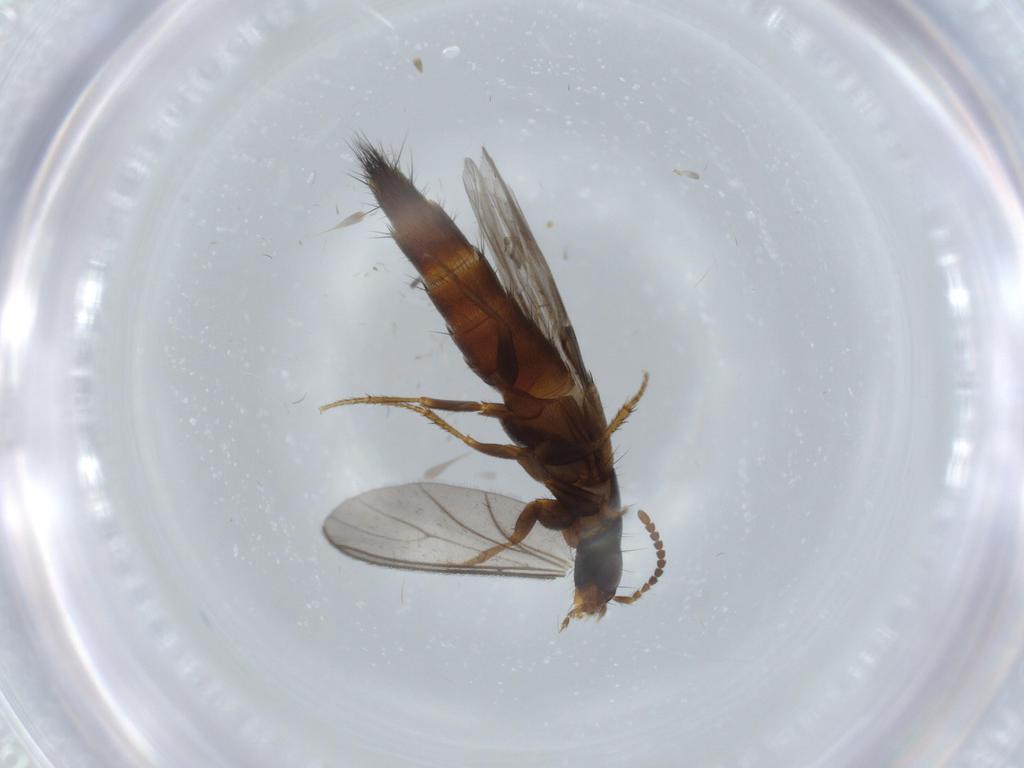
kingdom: Animalia
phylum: Arthropoda
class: Insecta
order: Coleoptera
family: Staphylinidae
